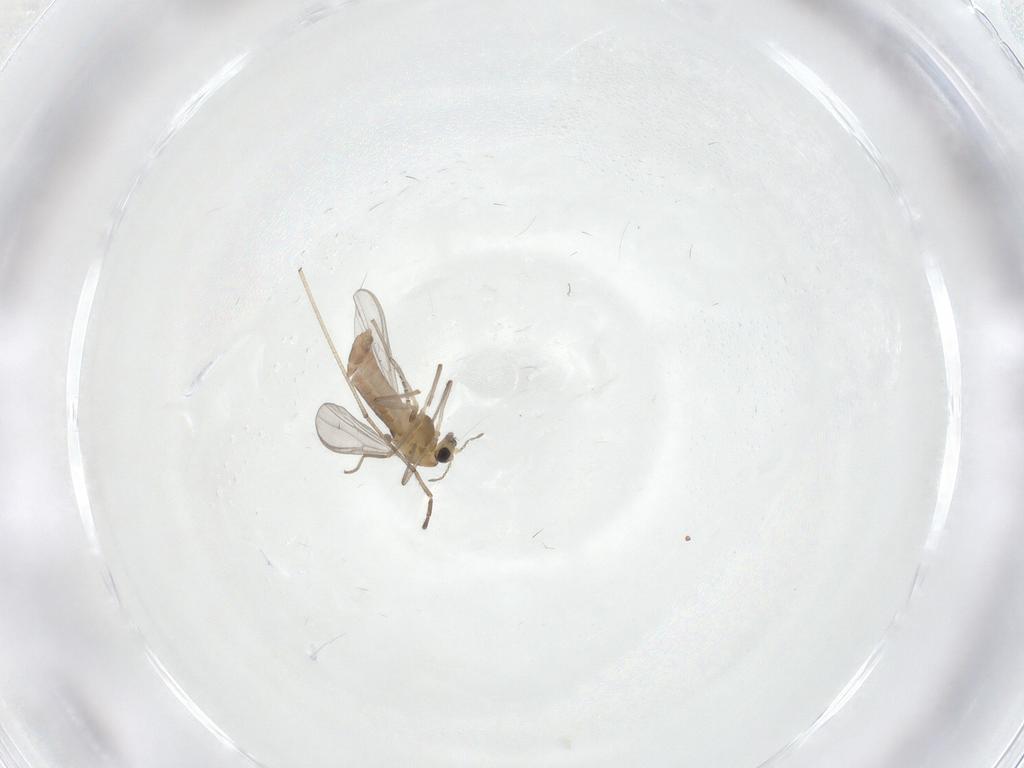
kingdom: Animalia
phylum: Arthropoda
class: Insecta
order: Diptera
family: Chironomidae
